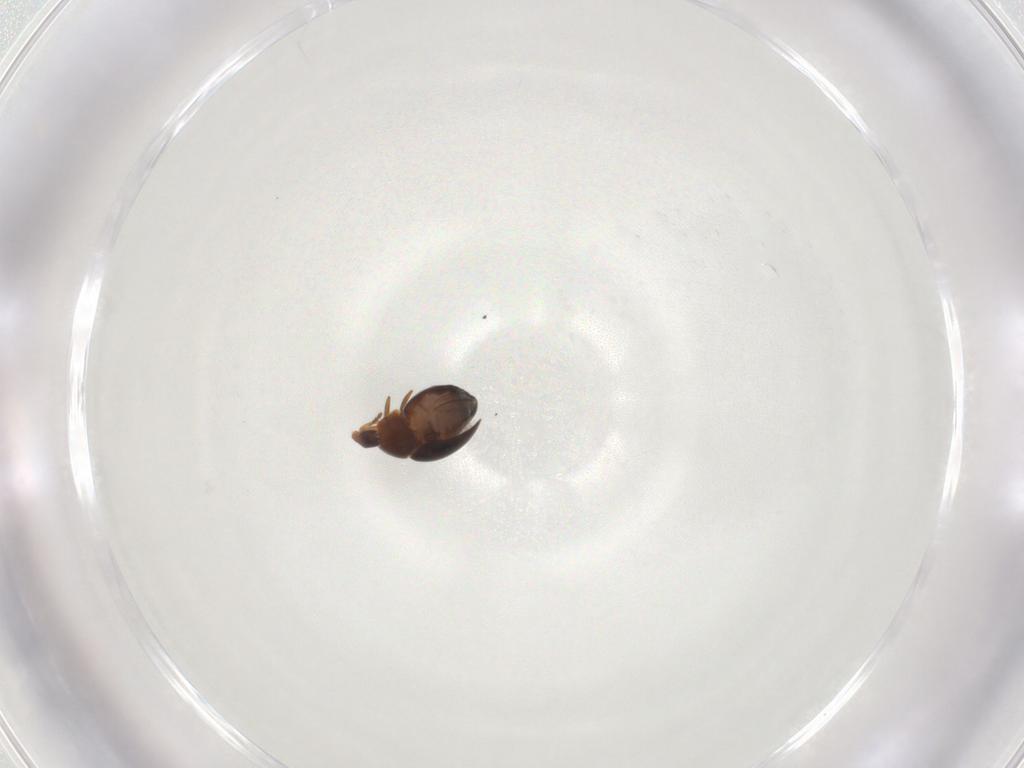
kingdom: Animalia
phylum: Arthropoda
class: Insecta
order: Coleoptera
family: Corylophidae
